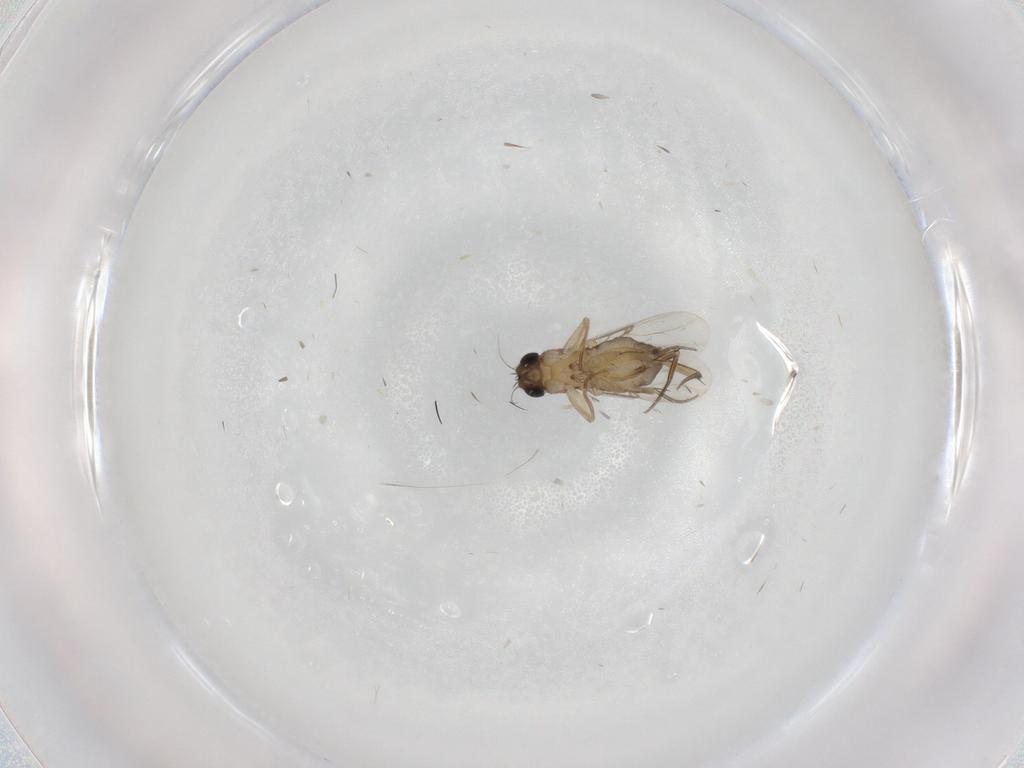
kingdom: Animalia
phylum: Arthropoda
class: Insecta
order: Diptera
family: Phoridae
